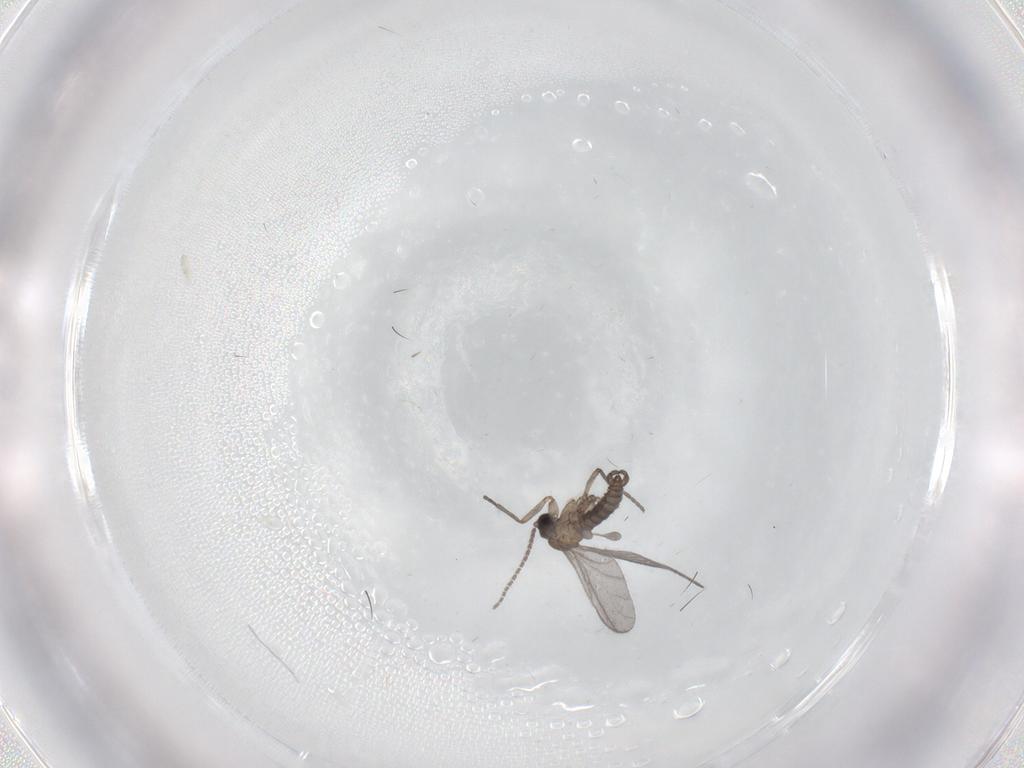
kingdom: Animalia
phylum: Arthropoda
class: Insecta
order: Diptera
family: Sciaridae
